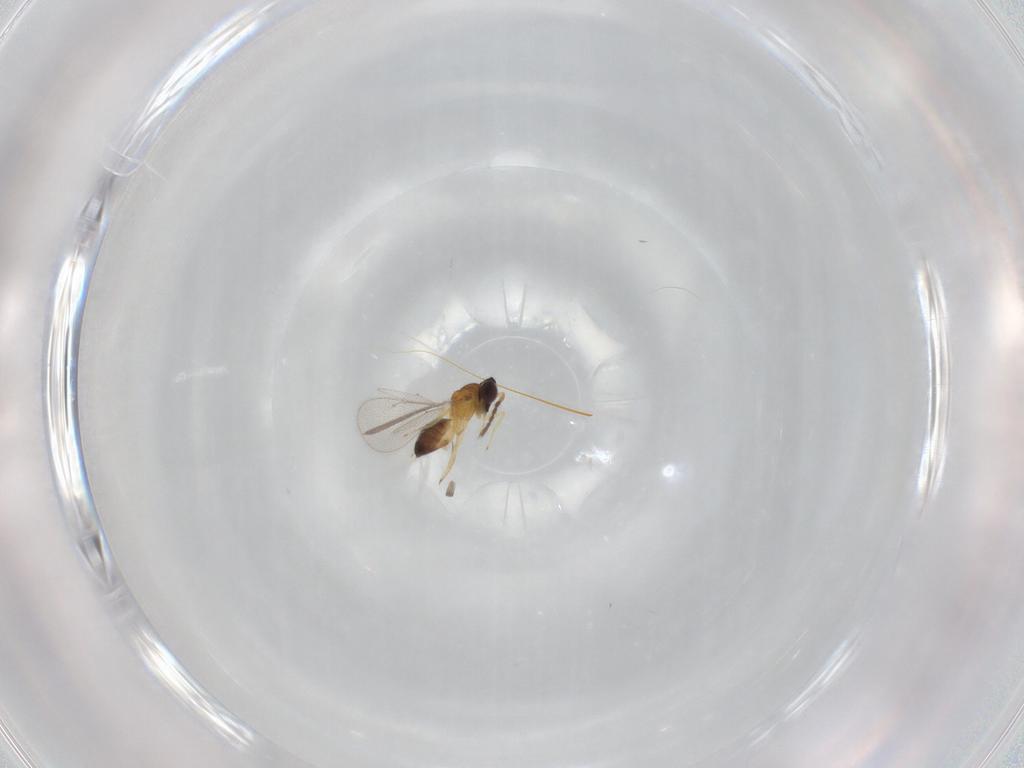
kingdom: Animalia
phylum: Arthropoda
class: Insecta
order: Hymenoptera
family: Eulophidae
